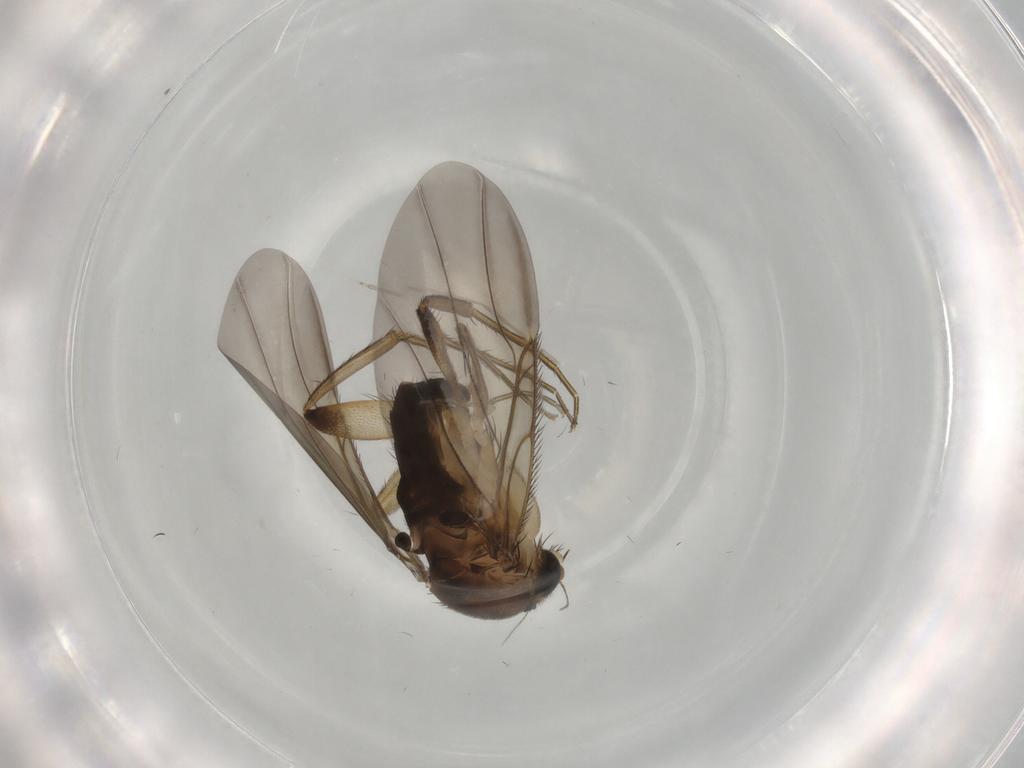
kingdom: Animalia
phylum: Arthropoda
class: Insecta
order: Diptera
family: Phoridae
